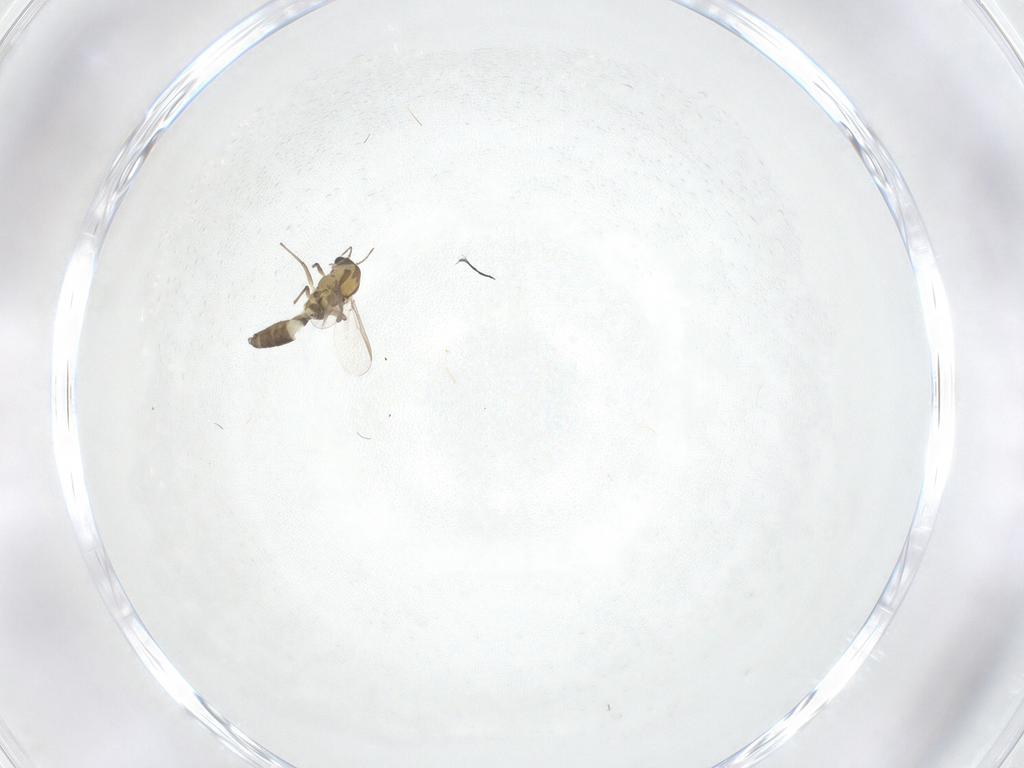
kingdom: Animalia
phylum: Arthropoda
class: Insecta
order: Diptera
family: Chironomidae
